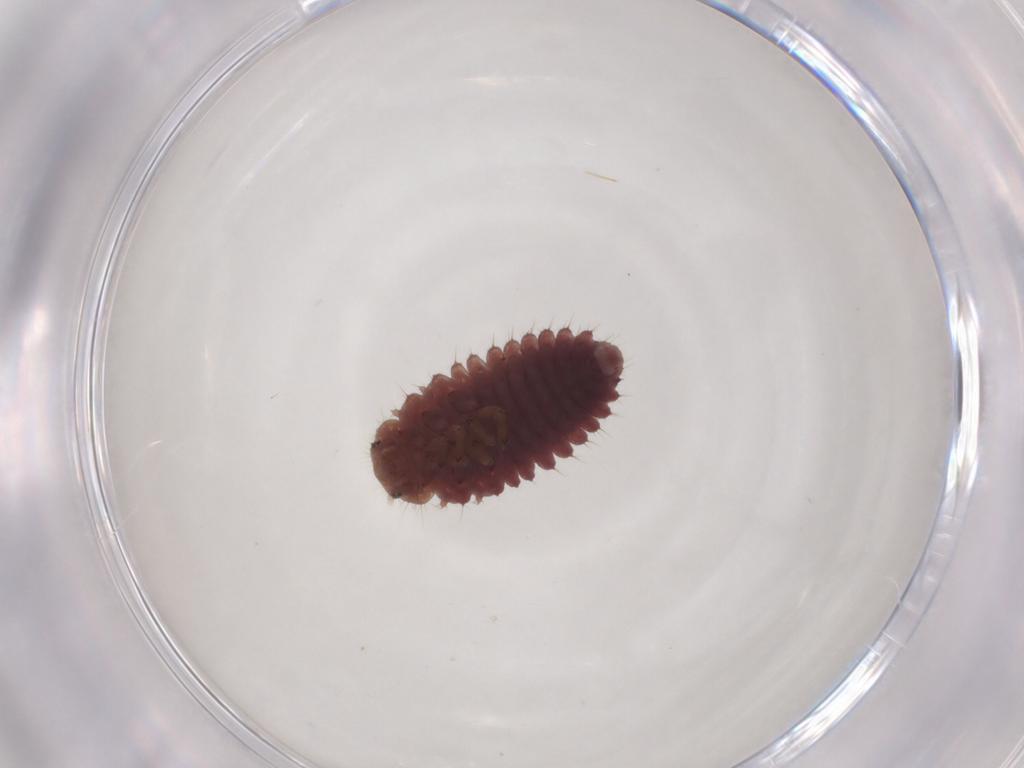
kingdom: Animalia
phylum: Arthropoda
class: Insecta
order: Coleoptera
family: Coccinellidae
